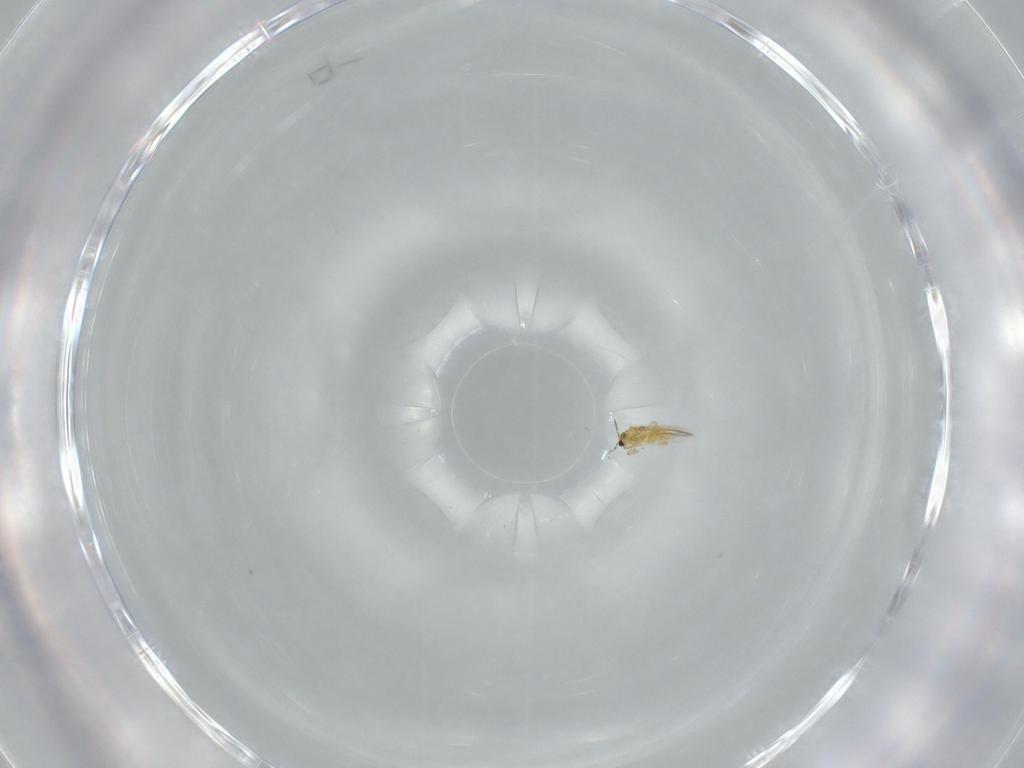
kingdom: Animalia
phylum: Arthropoda
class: Insecta
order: Thysanoptera
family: Thripidae
